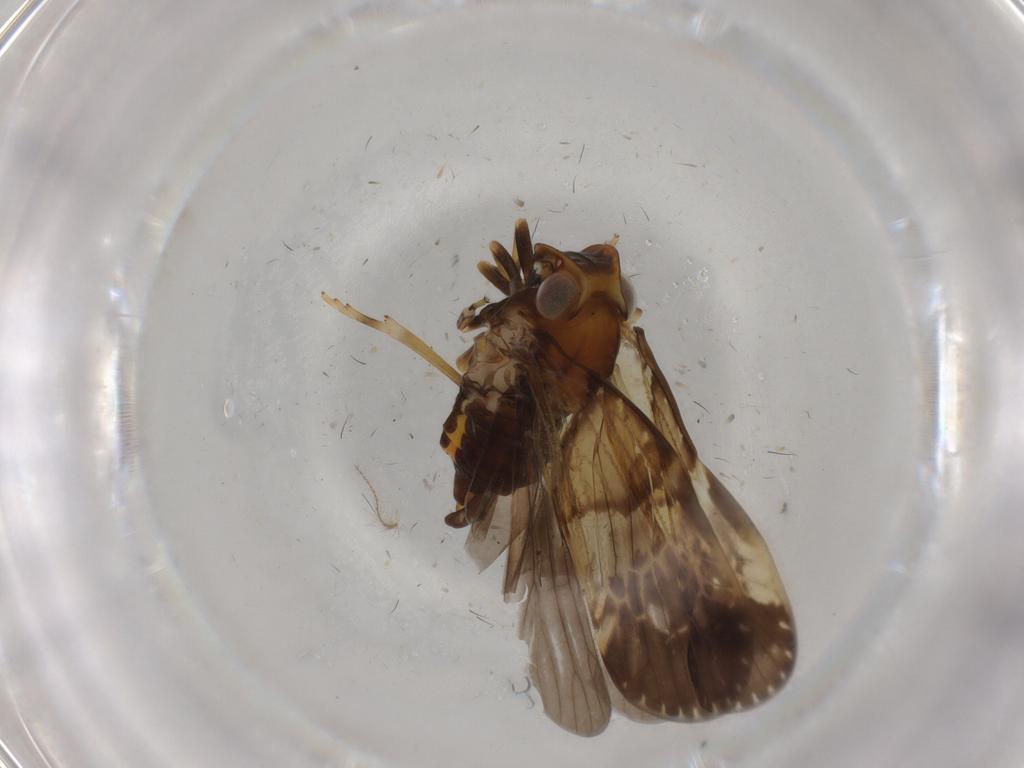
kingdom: Animalia
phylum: Arthropoda
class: Insecta
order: Hemiptera
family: Cixiidae
